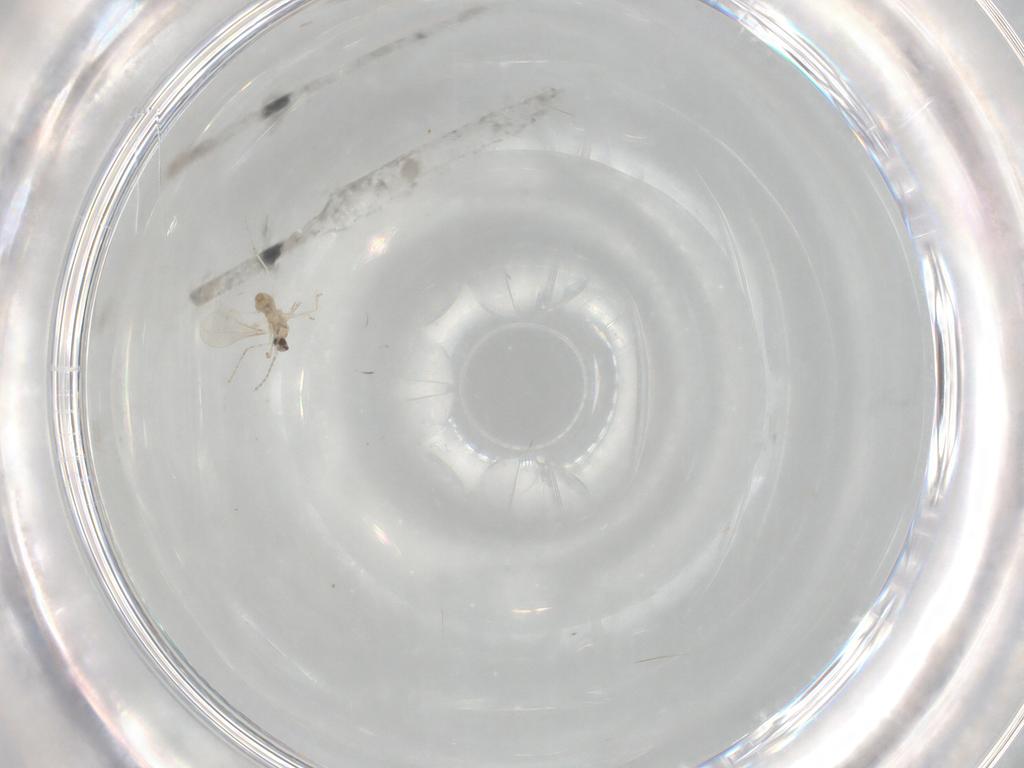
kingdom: Animalia
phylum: Arthropoda
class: Insecta
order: Diptera
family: Cecidomyiidae
